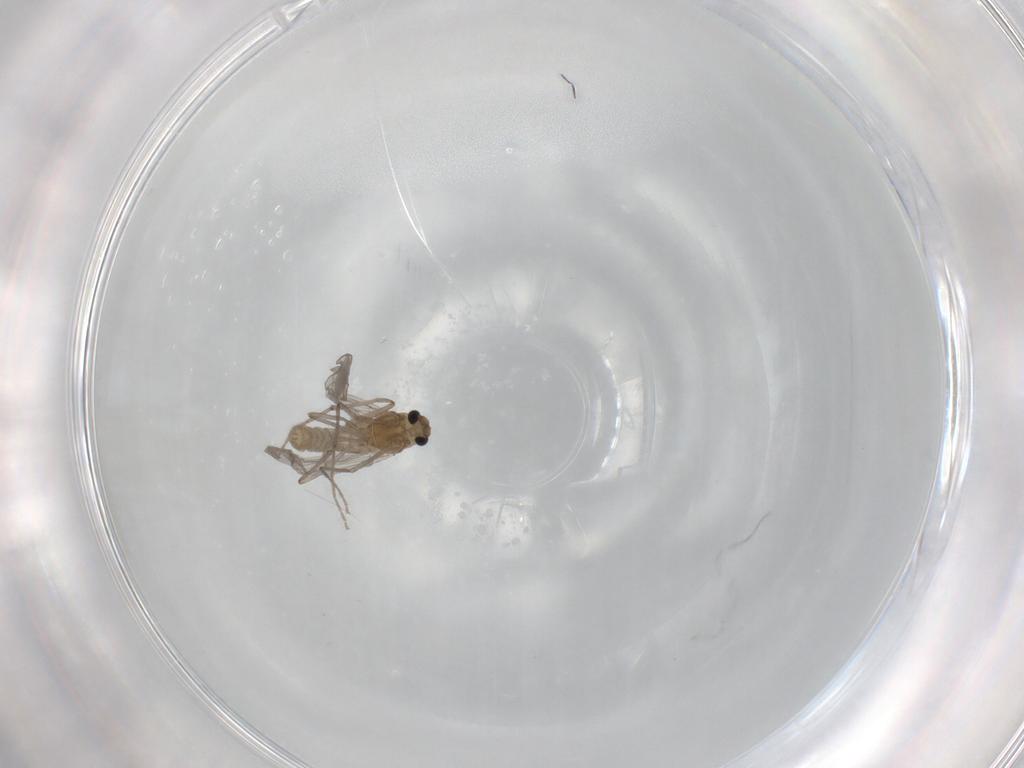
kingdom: Animalia
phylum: Arthropoda
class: Insecta
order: Diptera
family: Chironomidae
